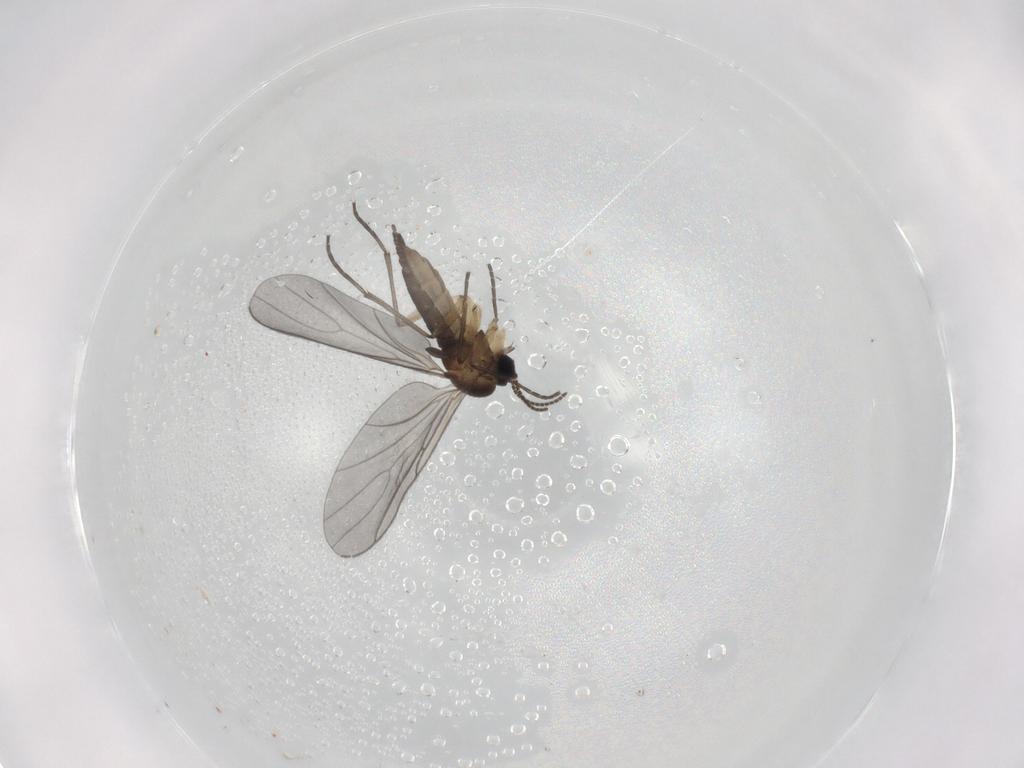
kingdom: Animalia
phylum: Arthropoda
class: Insecta
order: Diptera
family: Sciaridae
